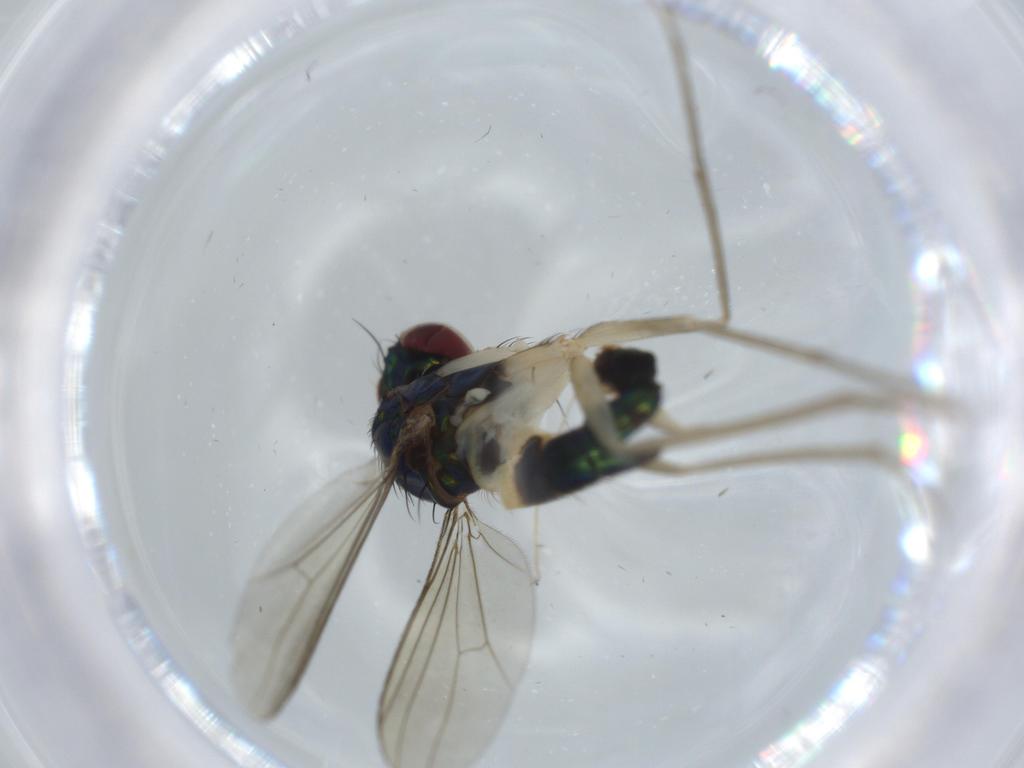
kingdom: Animalia
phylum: Arthropoda
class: Insecta
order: Diptera
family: Dolichopodidae
